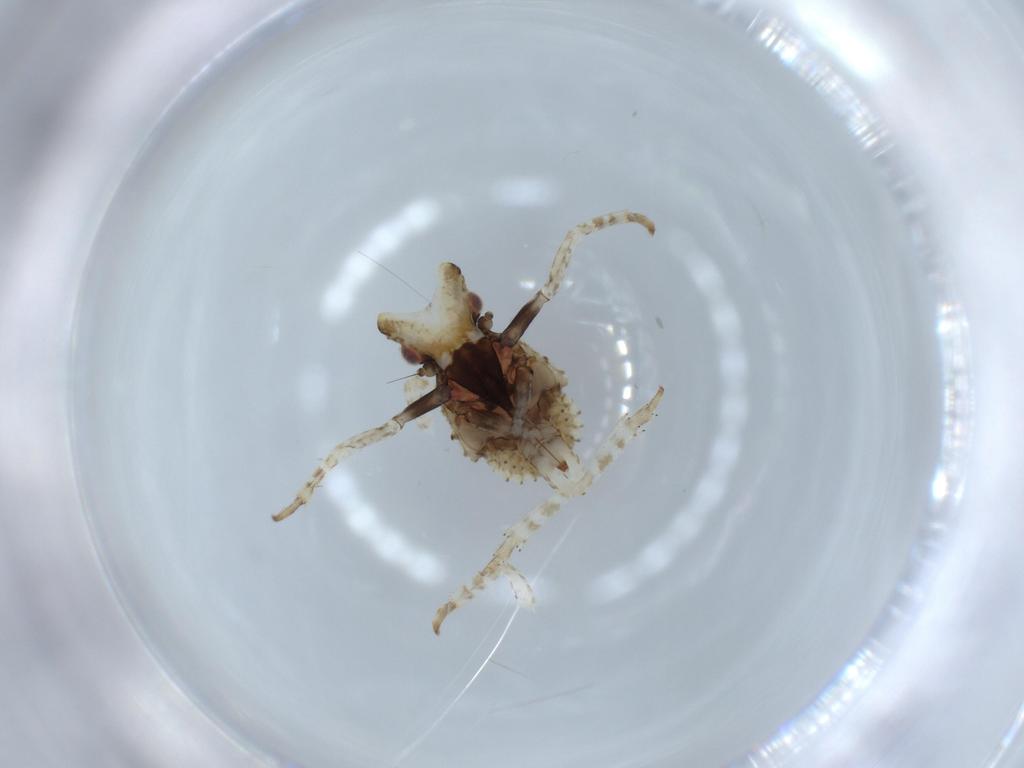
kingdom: Animalia
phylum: Arthropoda
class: Insecta
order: Hemiptera
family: Fulgoridae
